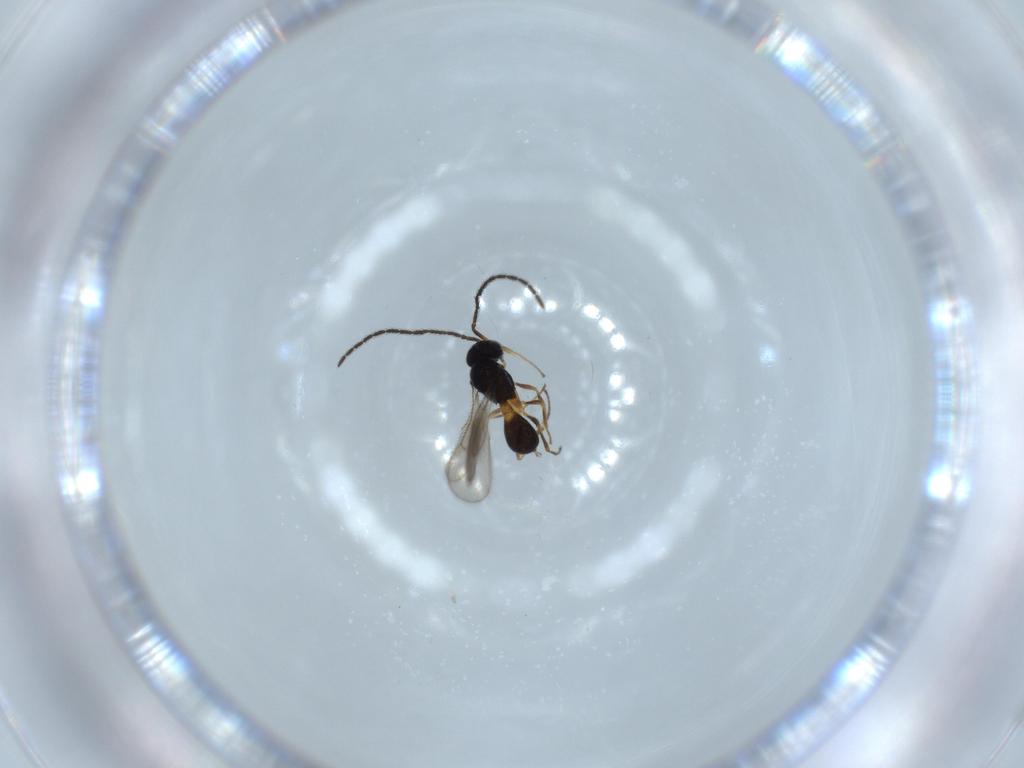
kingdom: Animalia
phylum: Arthropoda
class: Insecta
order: Hymenoptera
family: Scelionidae
